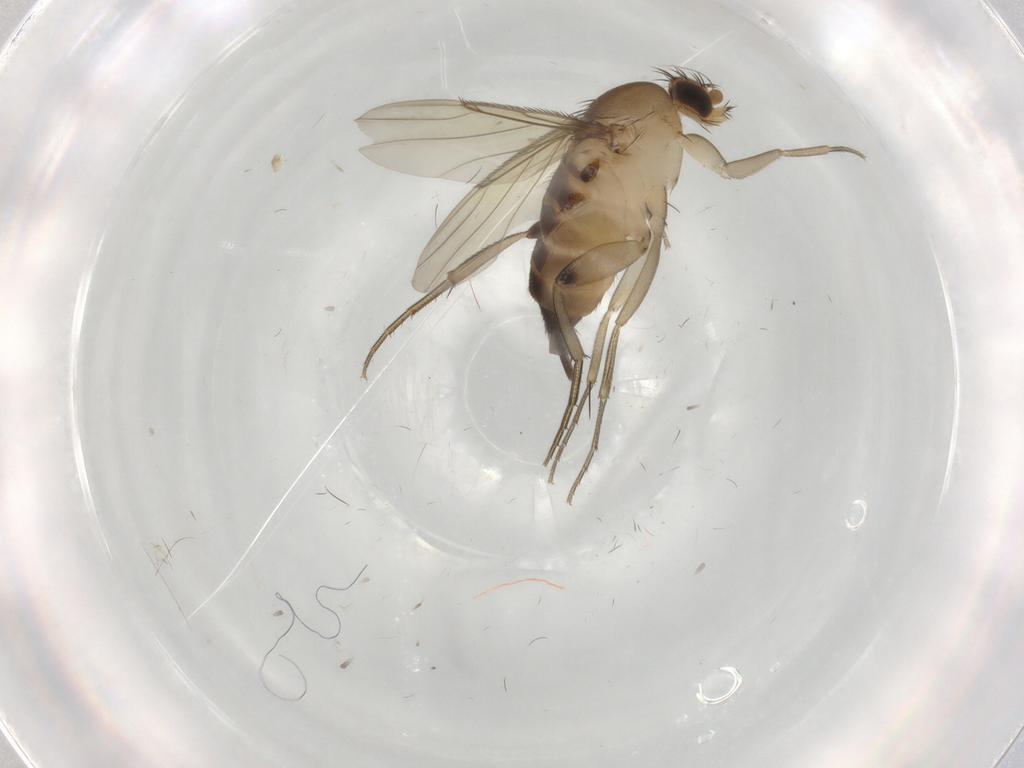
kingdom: Animalia
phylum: Arthropoda
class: Insecta
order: Diptera
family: Phoridae
